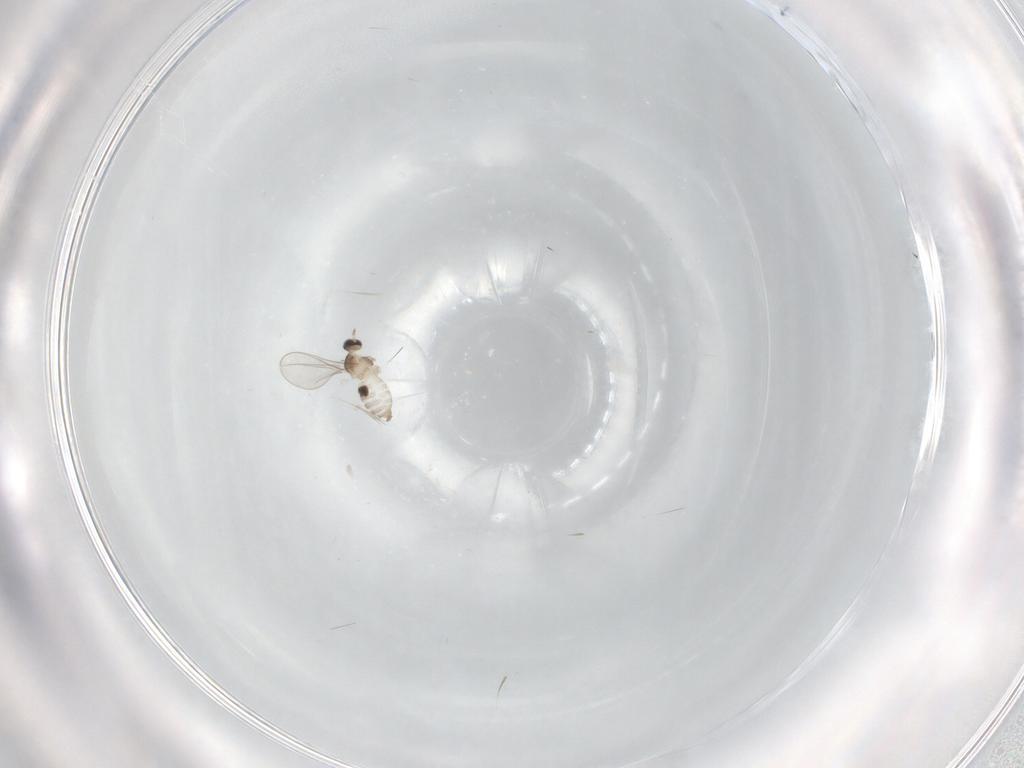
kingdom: Animalia
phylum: Arthropoda
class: Insecta
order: Diptera
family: Cecidomyiidae
